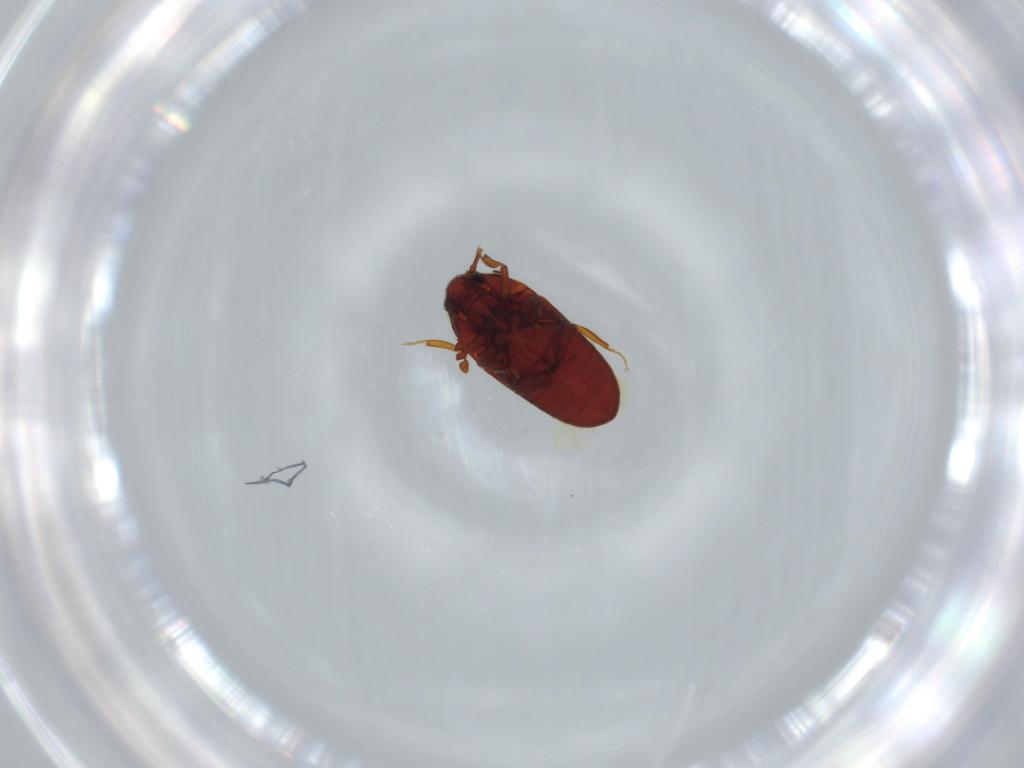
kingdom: Animalia
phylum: Arthropoda
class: Insecta
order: Coleoptera
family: Throscidae
